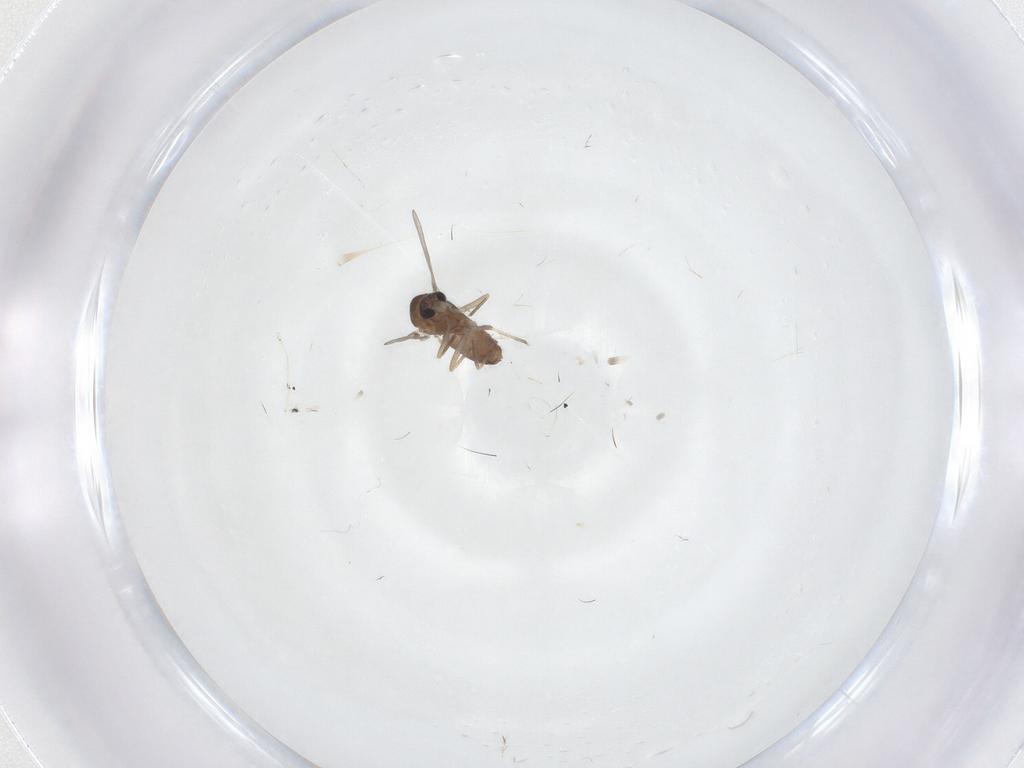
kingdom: Animalia
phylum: Arthropoda
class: Insecta
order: Diptera
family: Chironomidae
